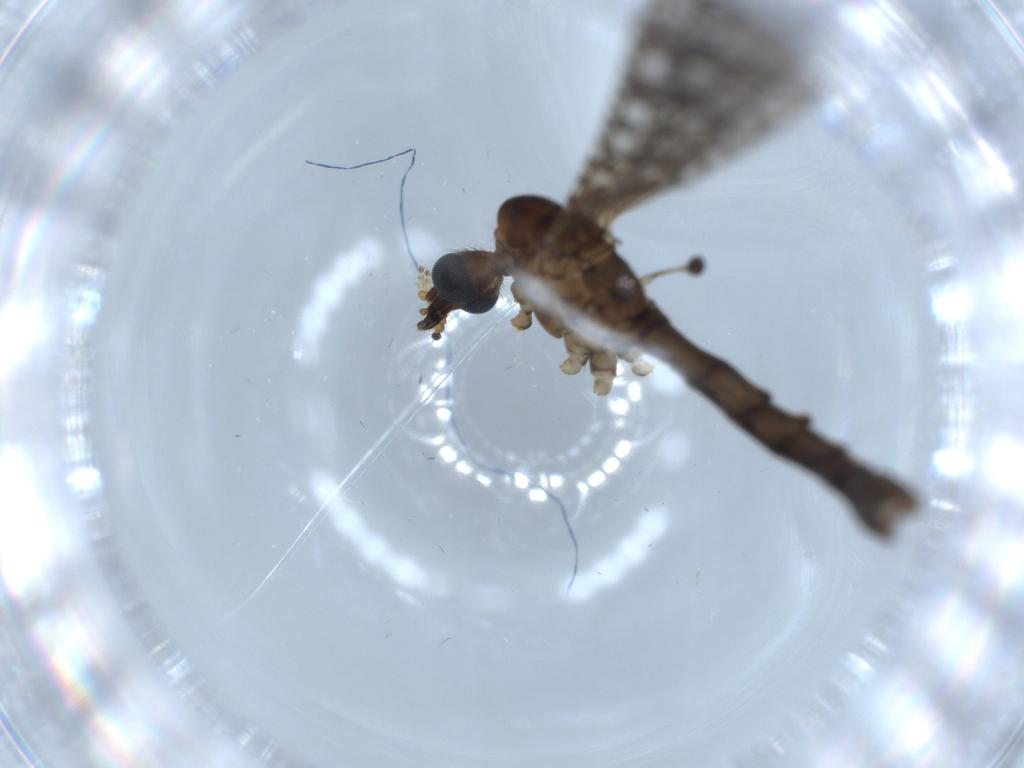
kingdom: Animalia
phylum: Arthropoda
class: Insecta
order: Diptera
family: Limoniidae
